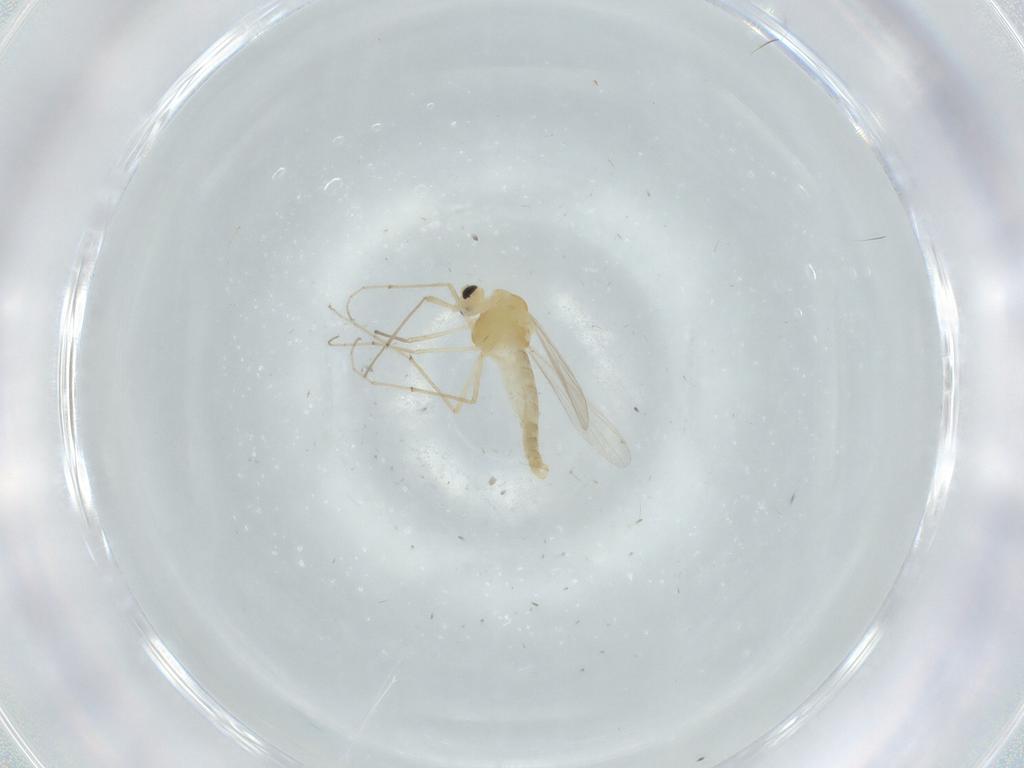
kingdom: Animalia
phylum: Arthropoda
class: Insecta
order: Diptera
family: Chironomidae
